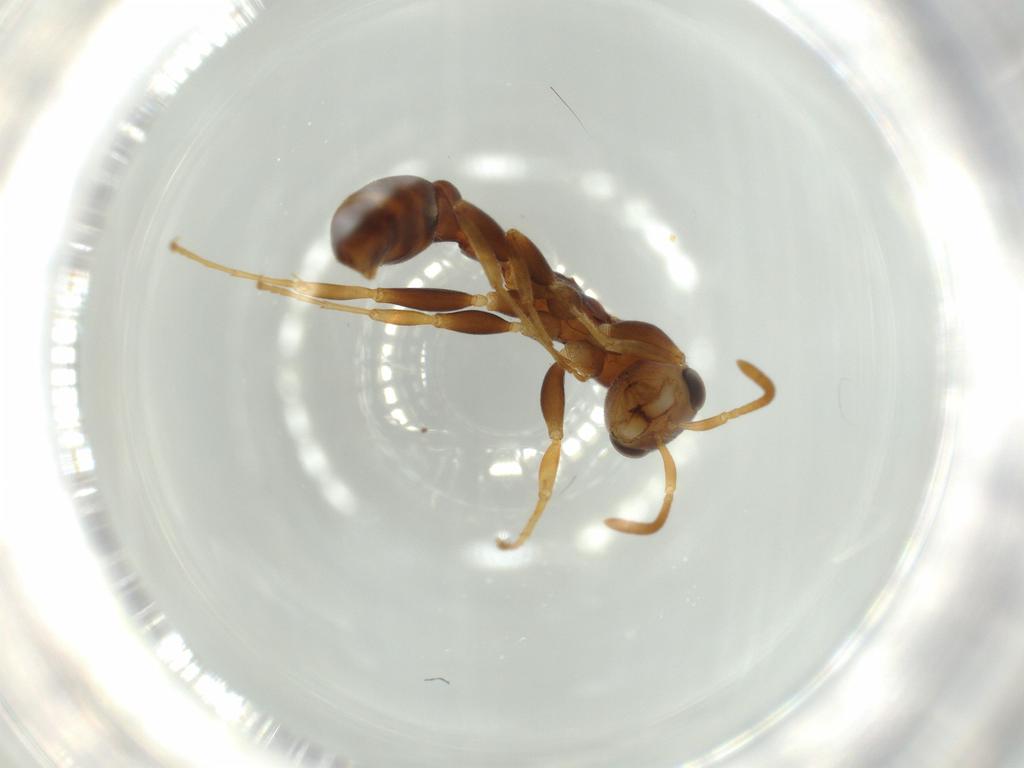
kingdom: Animalia
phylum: Arthropoda
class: Insecta
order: Hymenoptera
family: Formicidae
